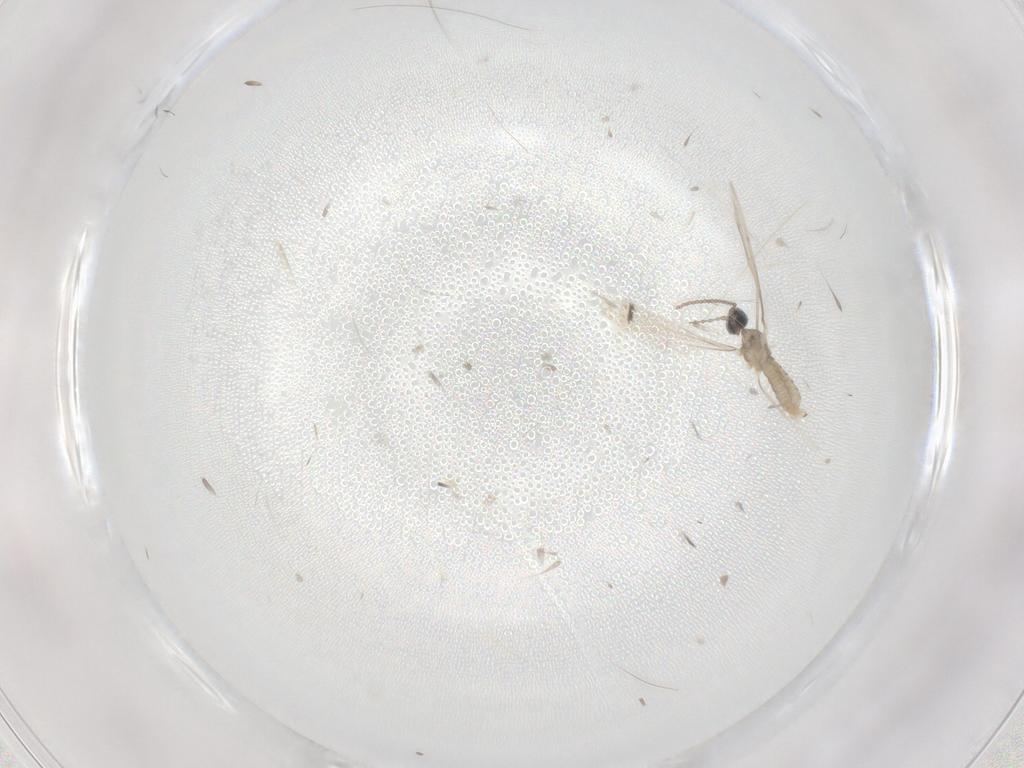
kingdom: Animalia
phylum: Arthropoda
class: Insecta
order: Diptera
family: Cecidomyiidae
